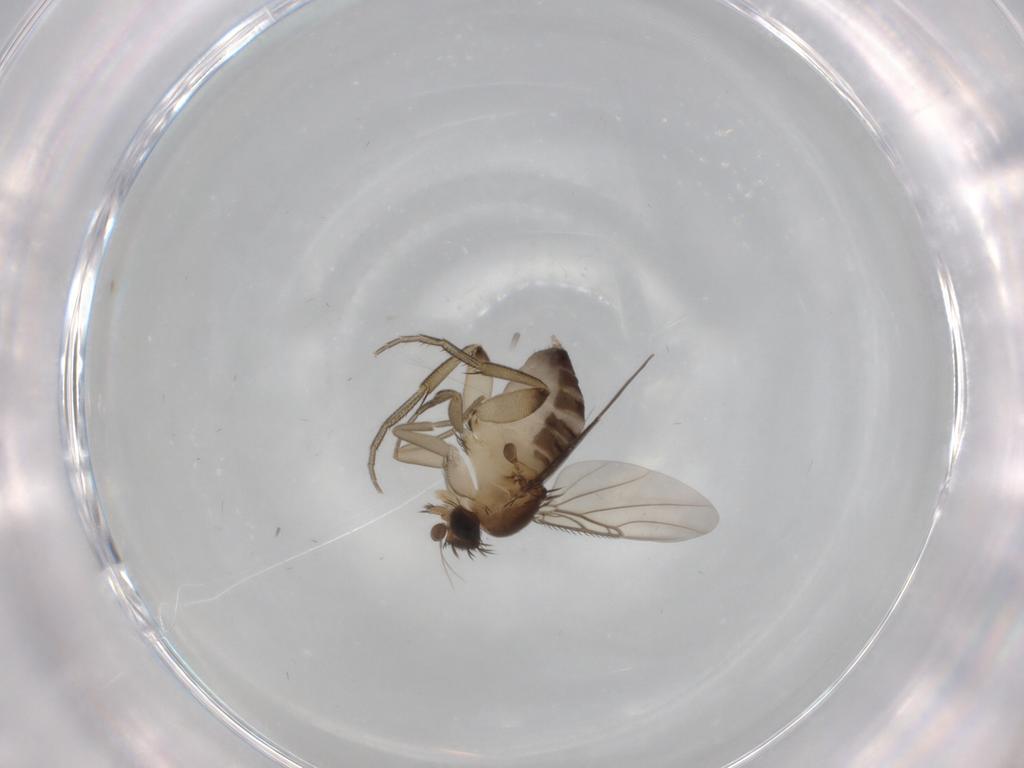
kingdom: Animalia
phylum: Arthropoda
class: Insecta
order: Diptera
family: Phoridae
